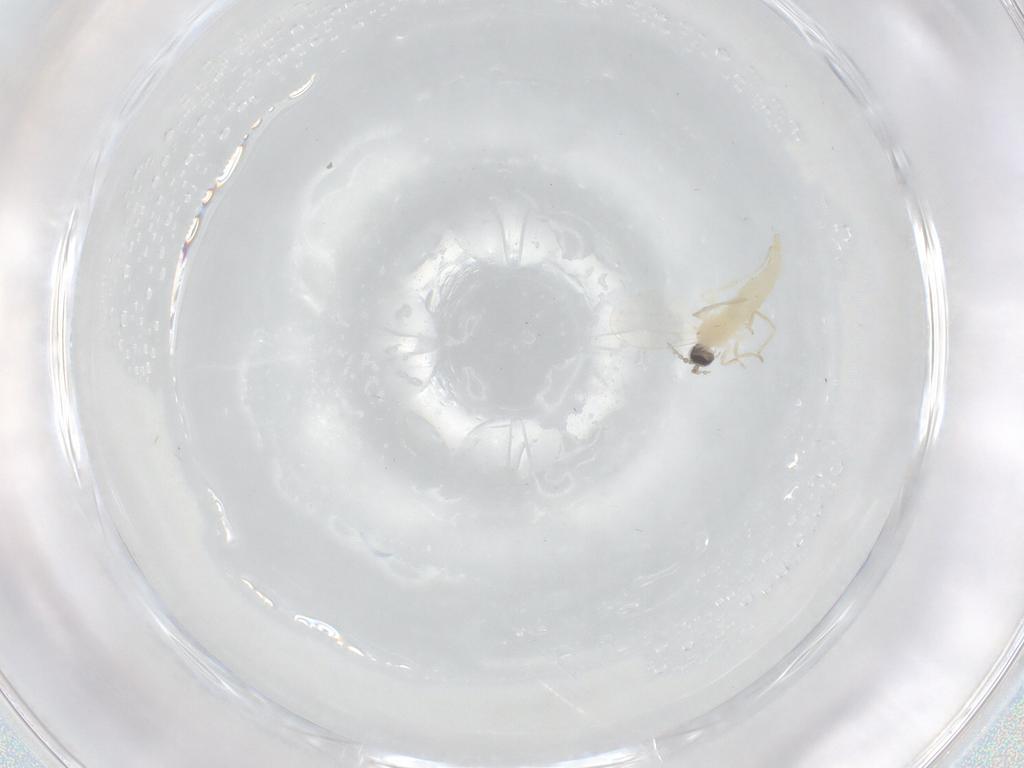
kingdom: Animalia
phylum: Arthropoda
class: Insecta
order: Diptera
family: Cecidomyiidae
